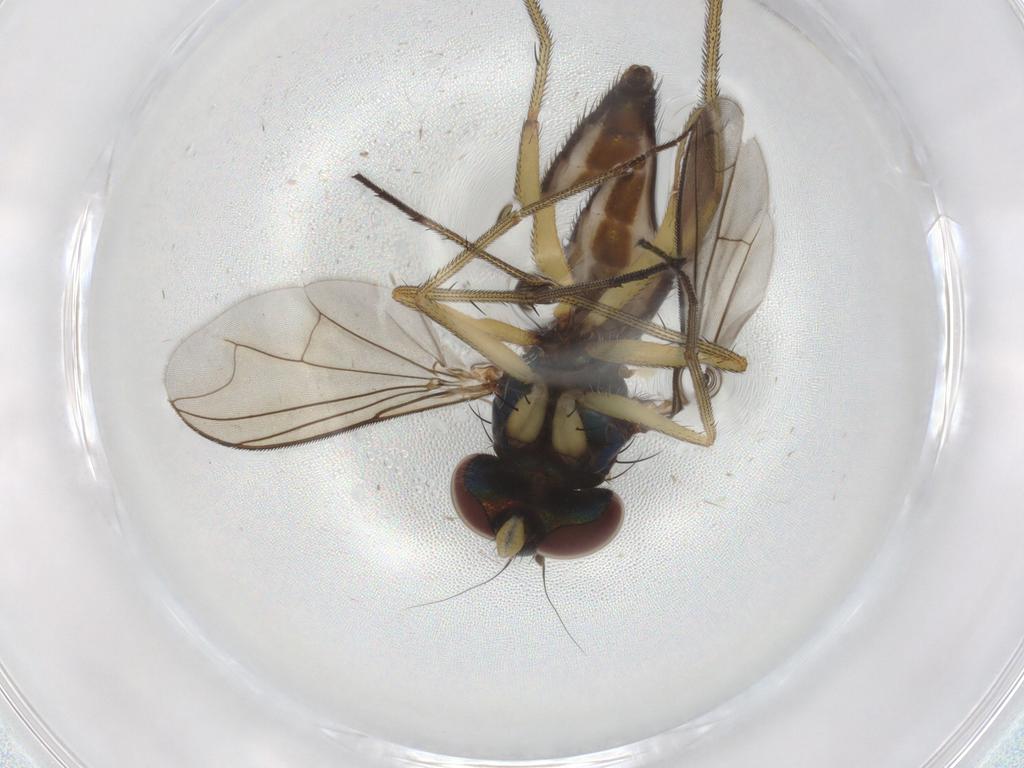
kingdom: Animalia
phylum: Arthropoda
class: Insecta
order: Diptera
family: Dolichopodidae
